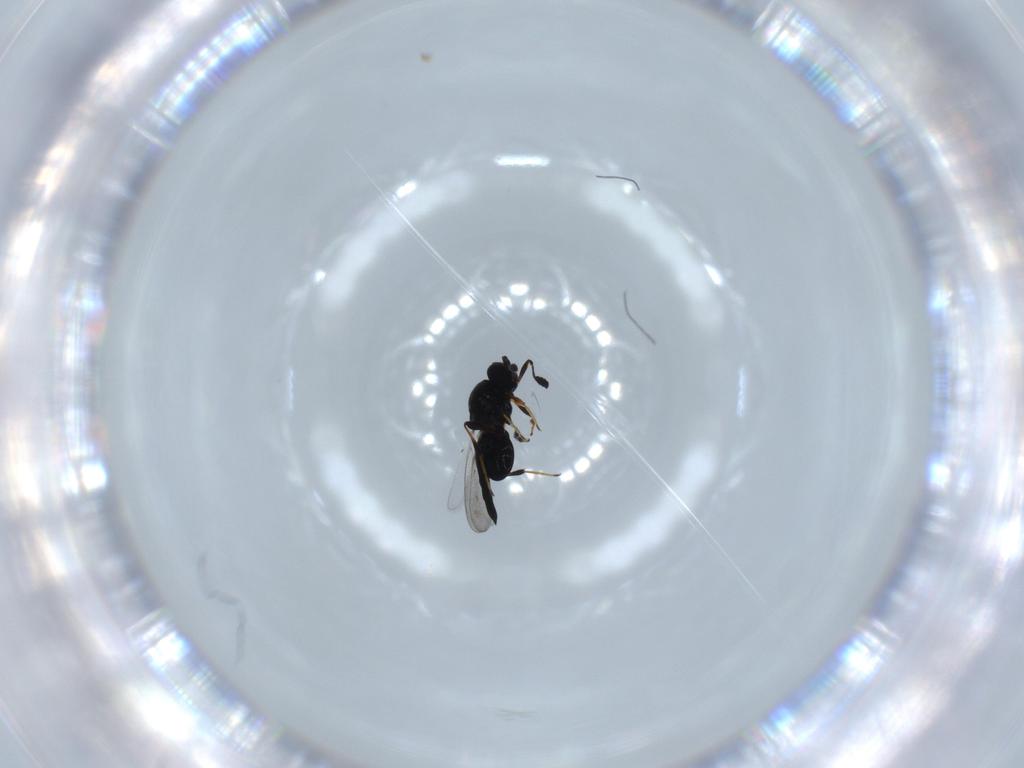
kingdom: Animalia
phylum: Arthropoda
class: Insecta
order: Hymenoptera
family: Platygastridae
